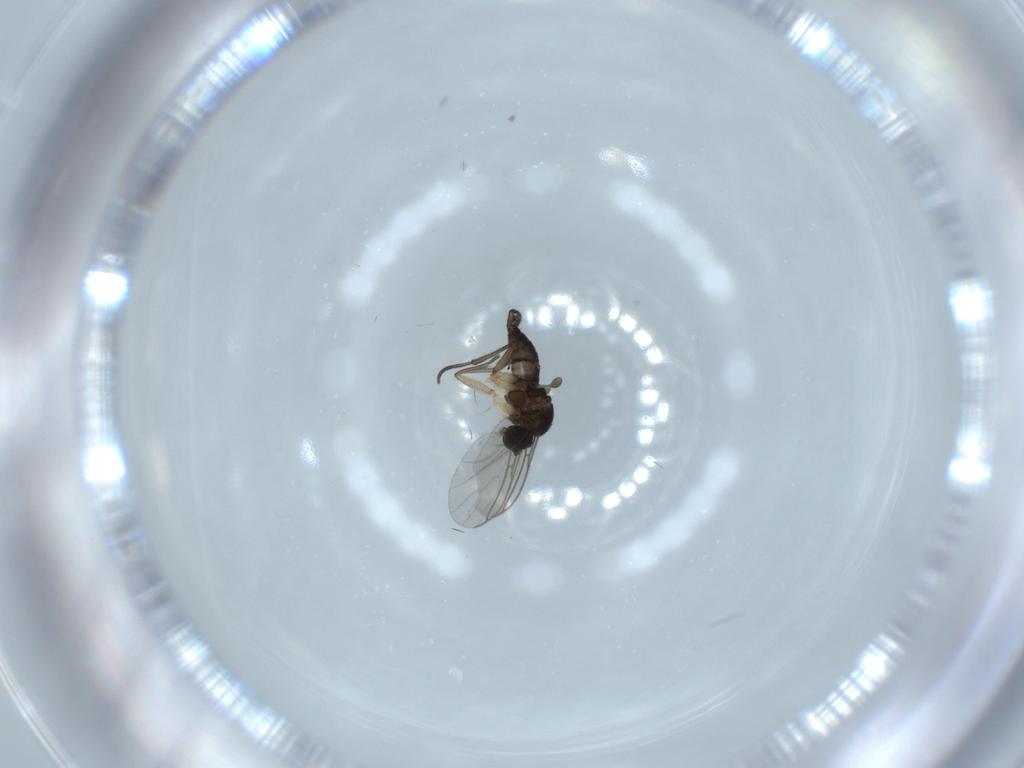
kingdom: Animalia
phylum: Arthropoda
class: Insecta
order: Diptera
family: Sciaridae
